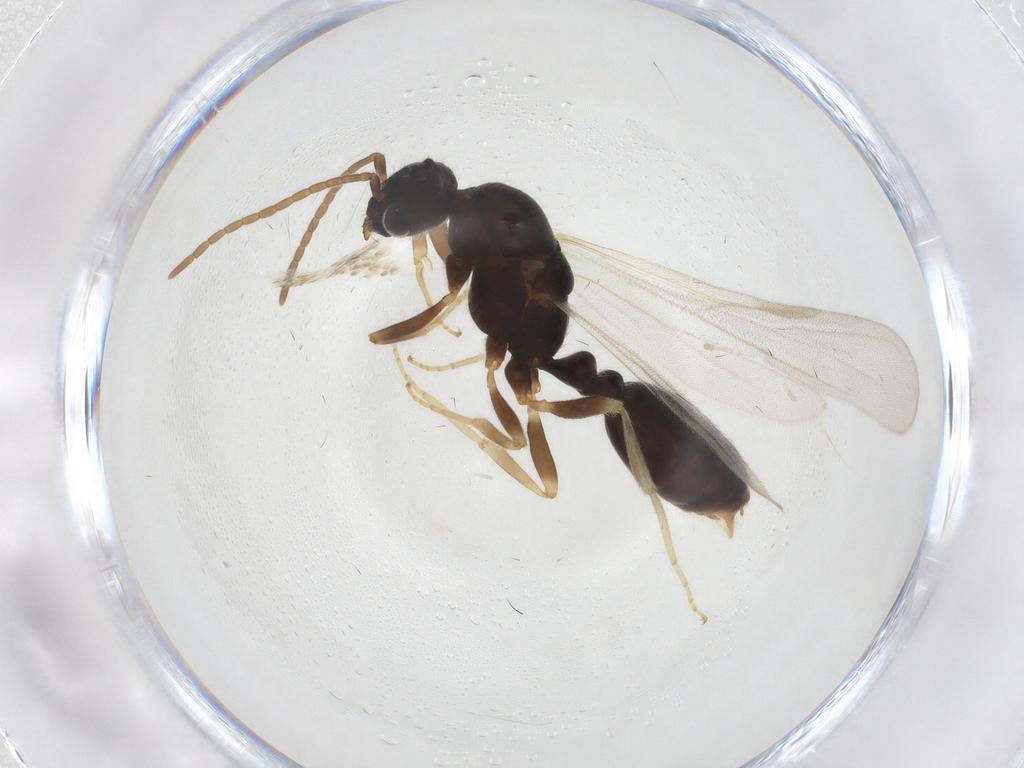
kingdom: Animalia
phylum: Arthropoda
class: Insecta
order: Hymenoptera
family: Formicidae
